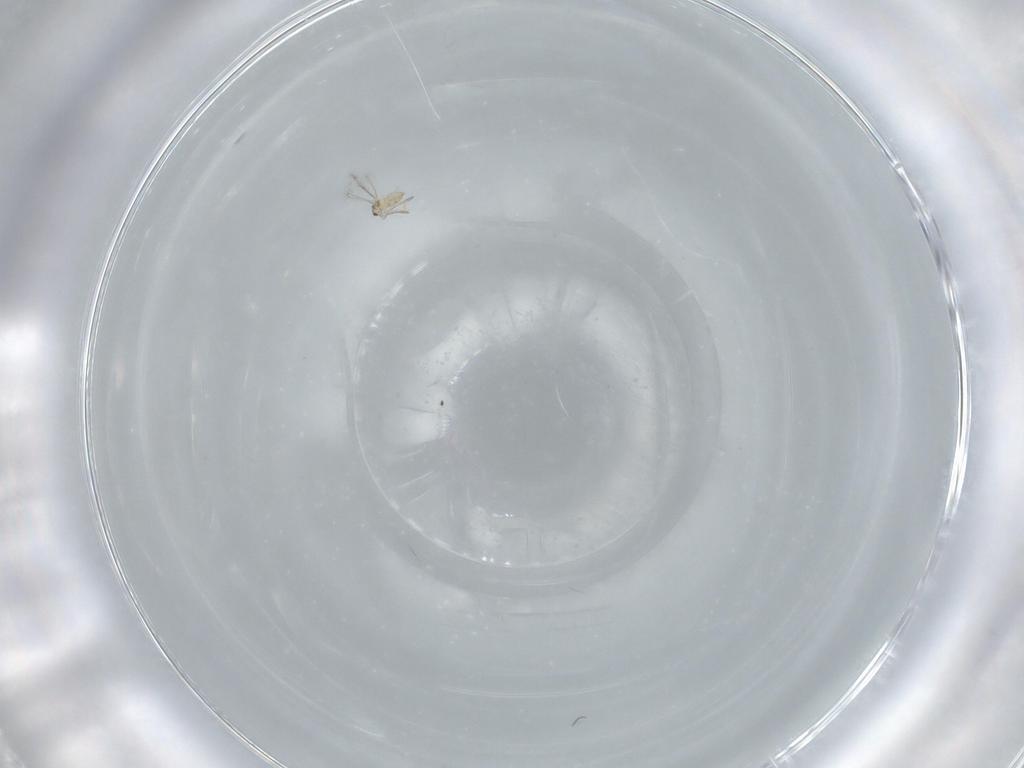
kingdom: Animalia
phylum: Arthropoda
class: Insecta
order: Hymenoptera
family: Mymaridae
